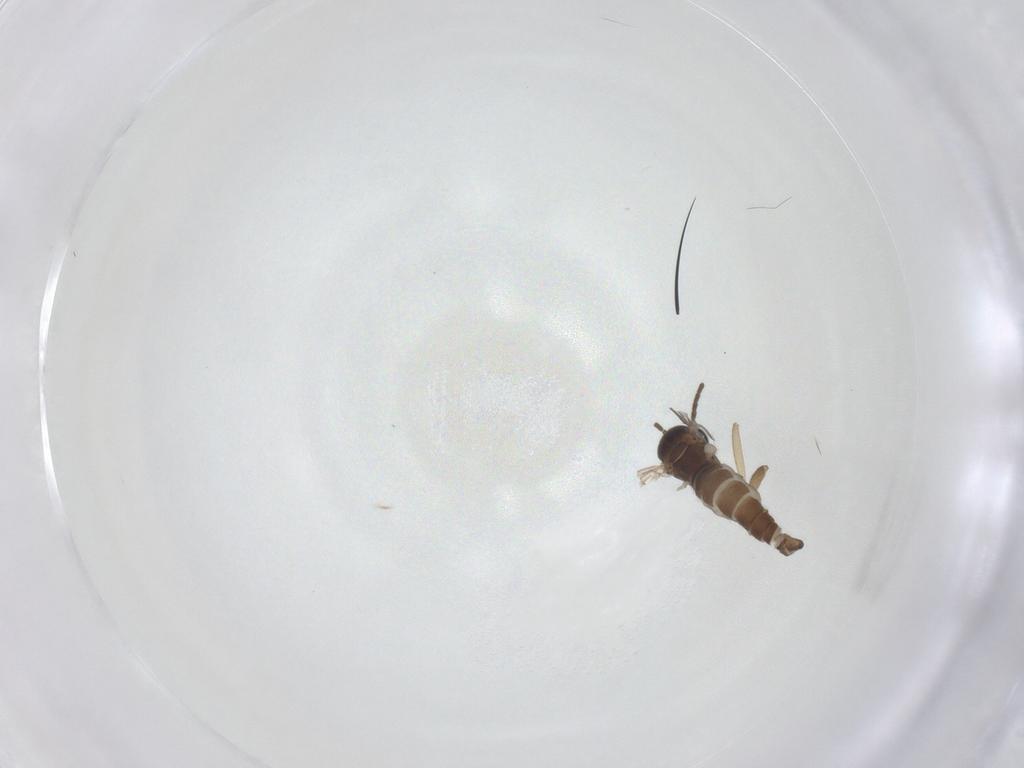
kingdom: Animalia
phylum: Arthropoda
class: Insecta
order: Diptera
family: Sciaridae
